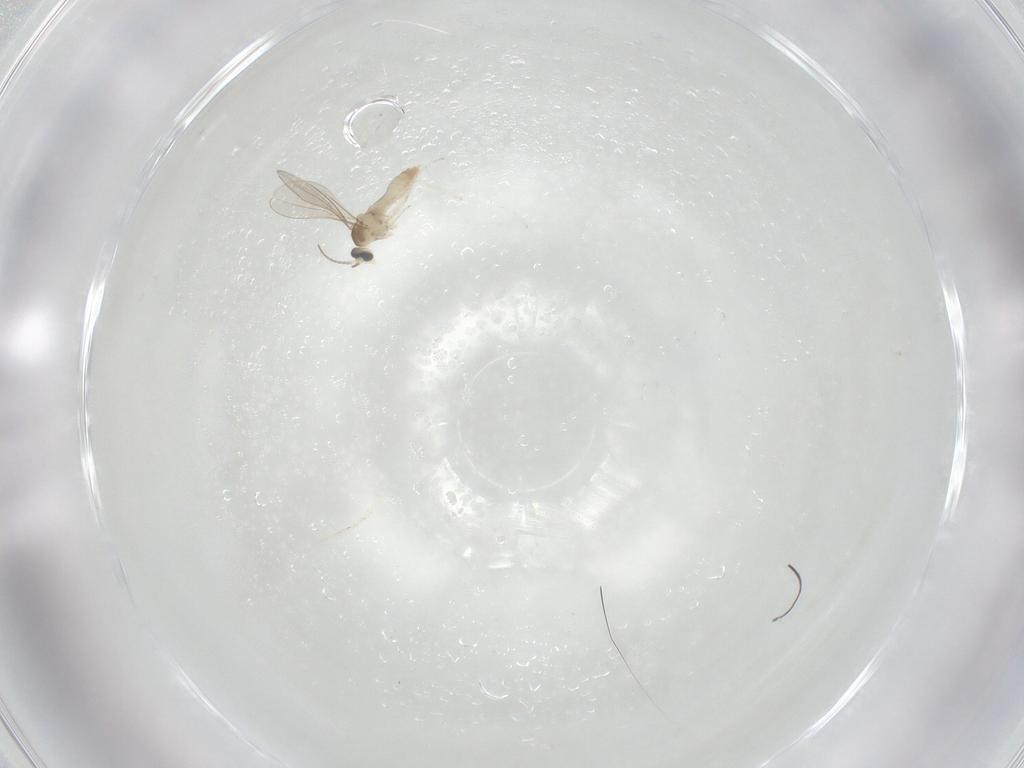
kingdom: Animalia
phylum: Arthropoda
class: Insecta
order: Diptera
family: Cecidomyiidae
